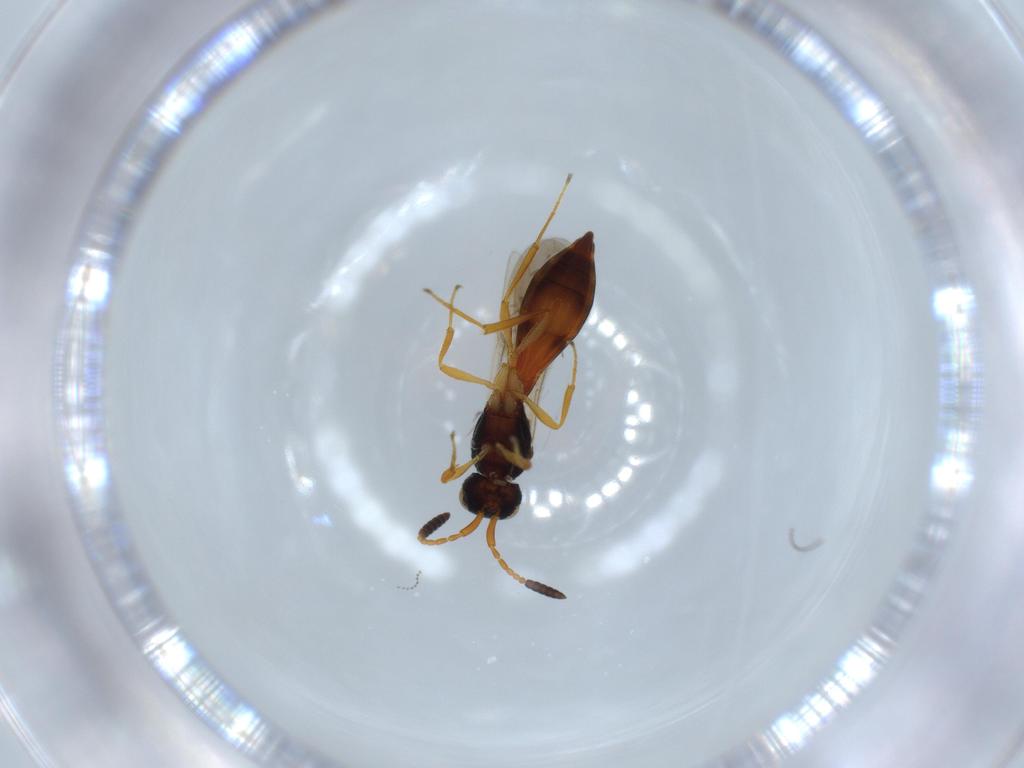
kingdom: Animalia
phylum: Arthropoda
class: Insecta
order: Hymenoptera
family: Scelionidae
